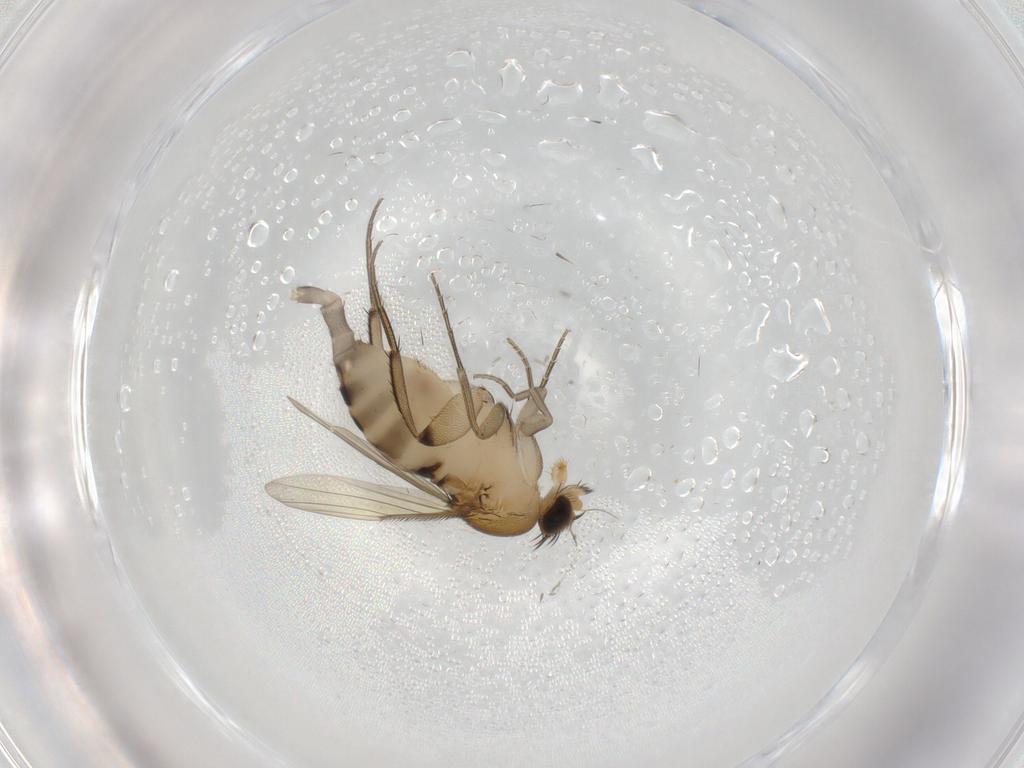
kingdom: Animalia
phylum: Arthropoda
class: Insecta
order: Diptera
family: Phoridae
